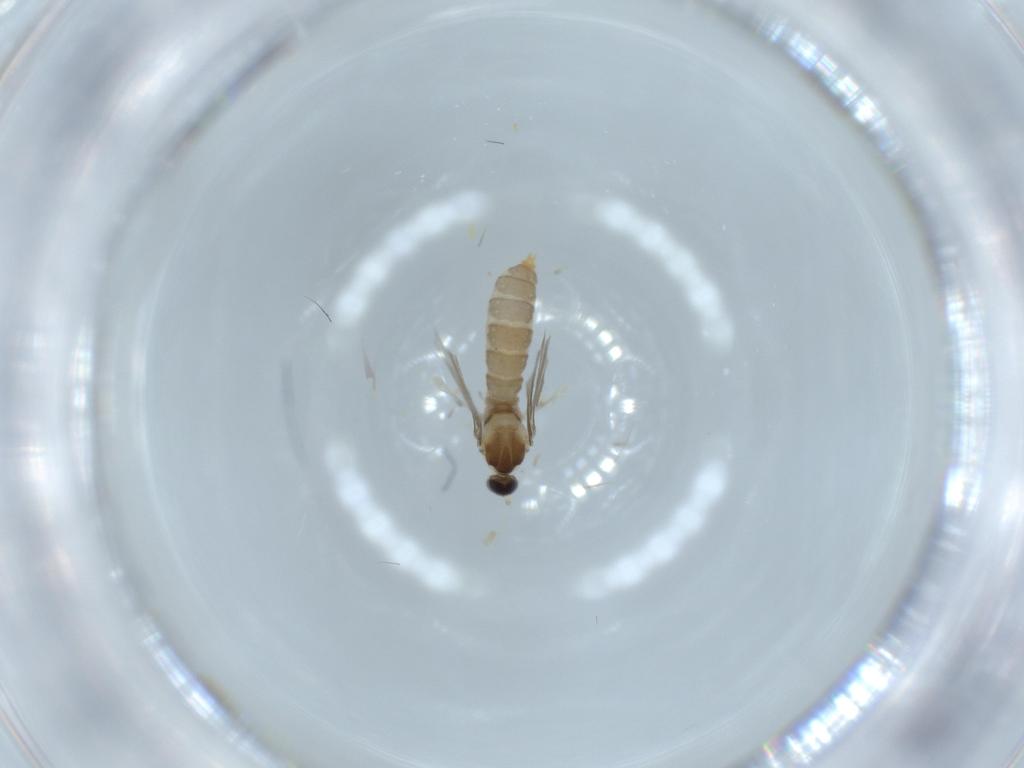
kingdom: Animalia
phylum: Arthropoda
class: Insecta
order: Diptera
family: Cecidomyiidae
